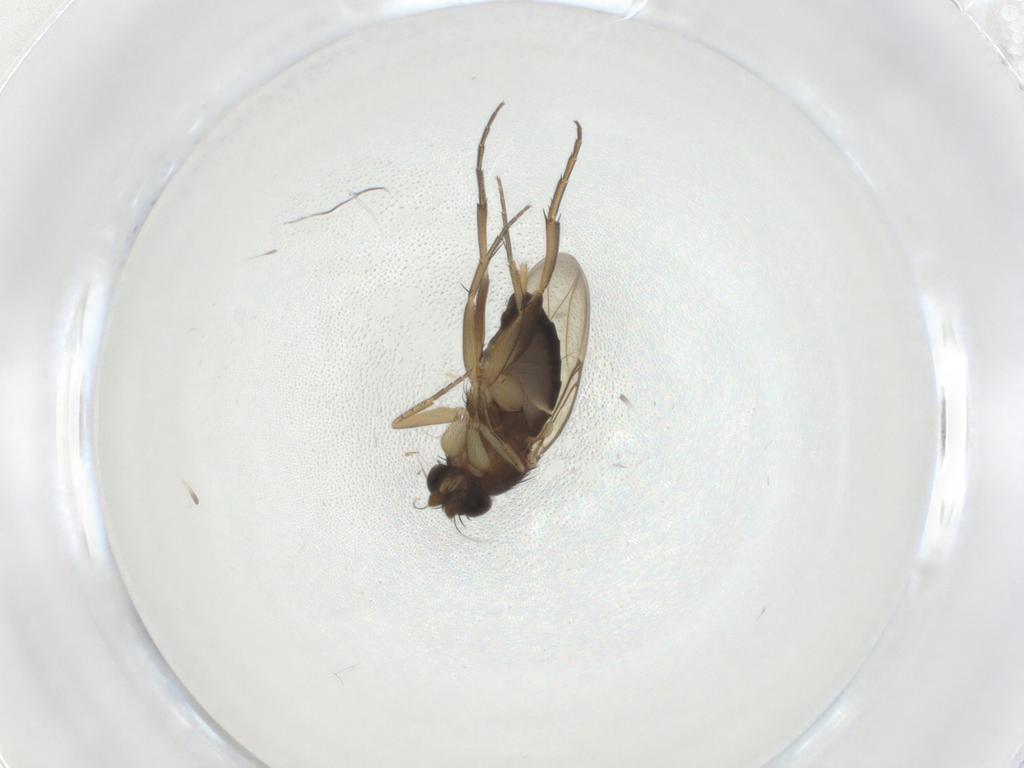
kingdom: Animalia
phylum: Arthropoda
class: Insecta
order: Diptera
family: Phoridae
